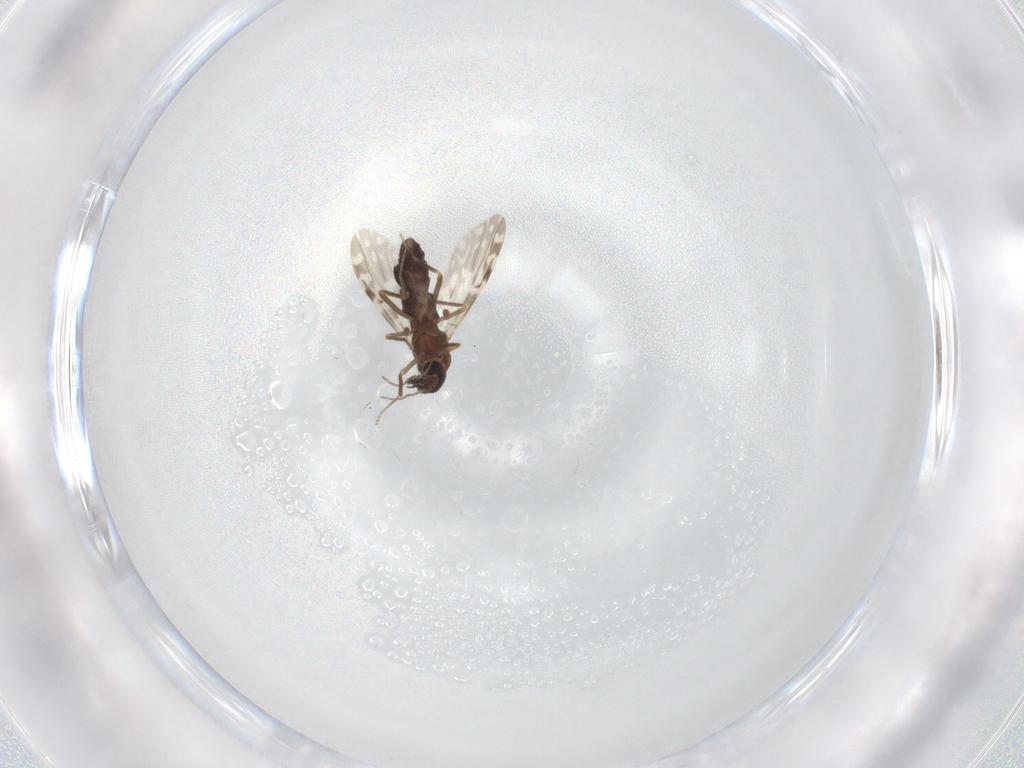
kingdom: Animalia
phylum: Arthropoda
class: Insecta
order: Diptera
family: Ceratopogonidae
